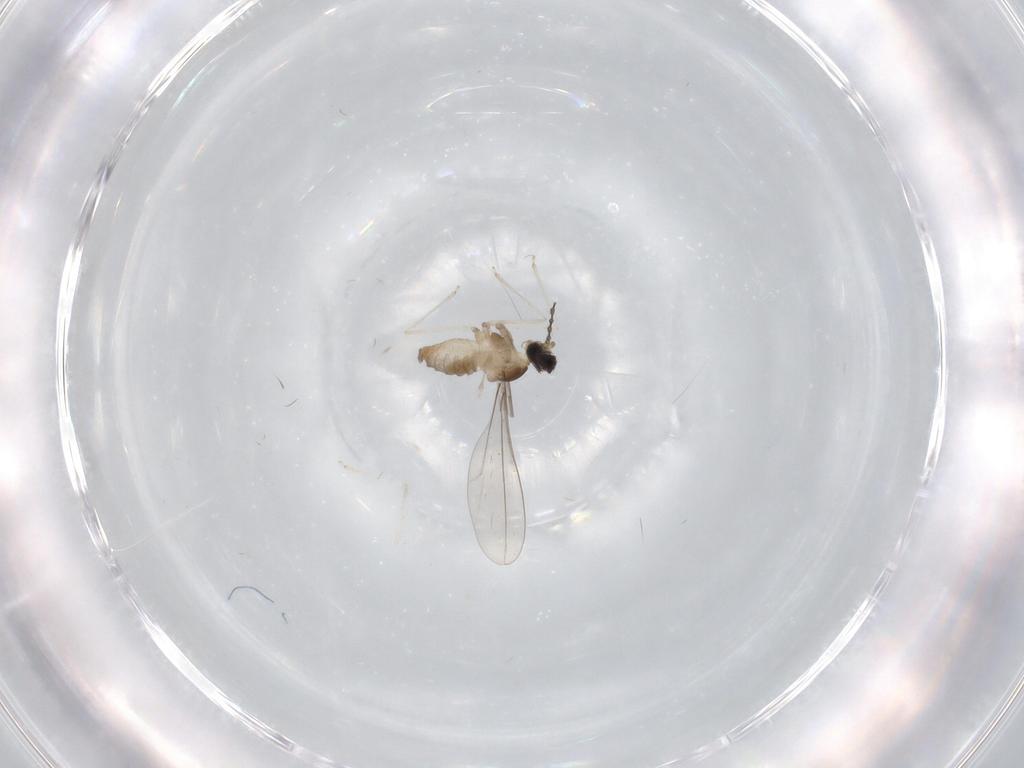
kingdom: Animalia
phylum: Arthropoda
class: Insecta
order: Diptera
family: Cecidomyiidae
